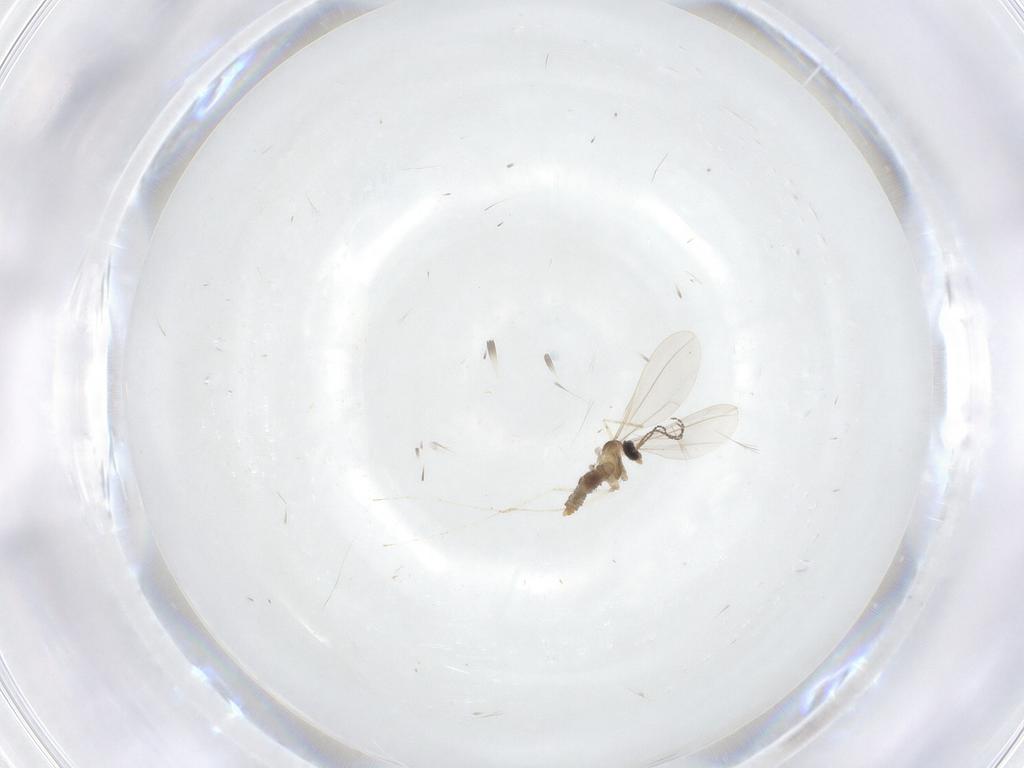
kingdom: Animalia
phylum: Arthropoda
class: Insecta
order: Diptera
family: Cecidomyiidae
